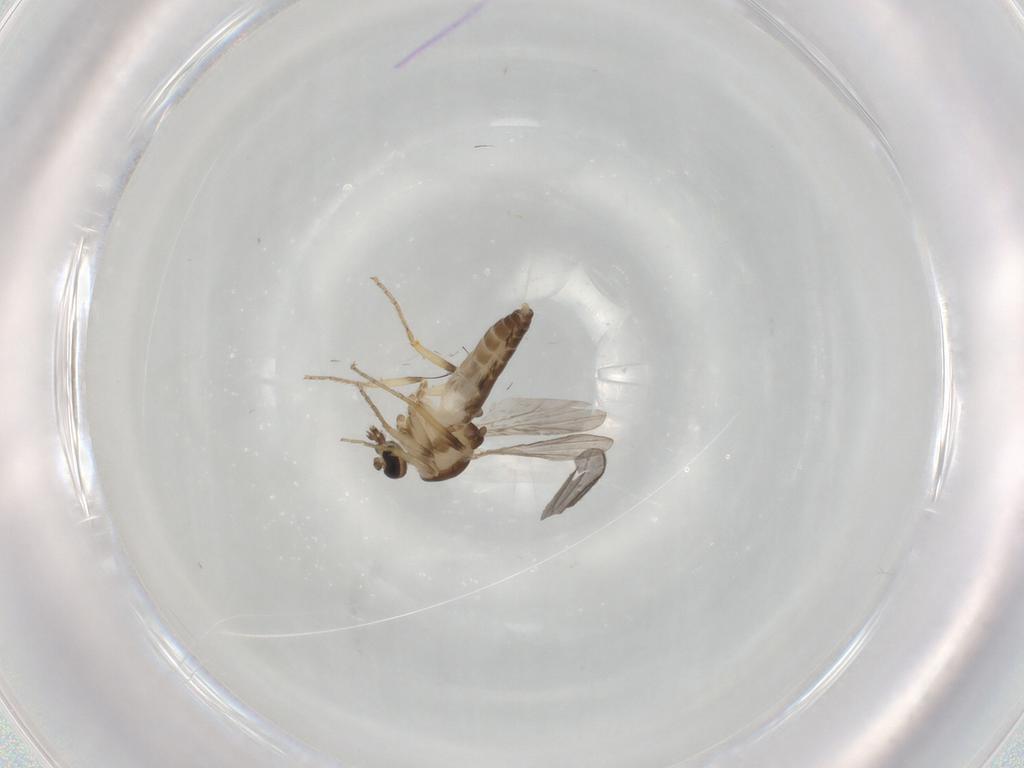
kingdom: Animalia
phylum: Arthropoda
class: Insecta
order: Diptera
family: Ceratopogonidae
